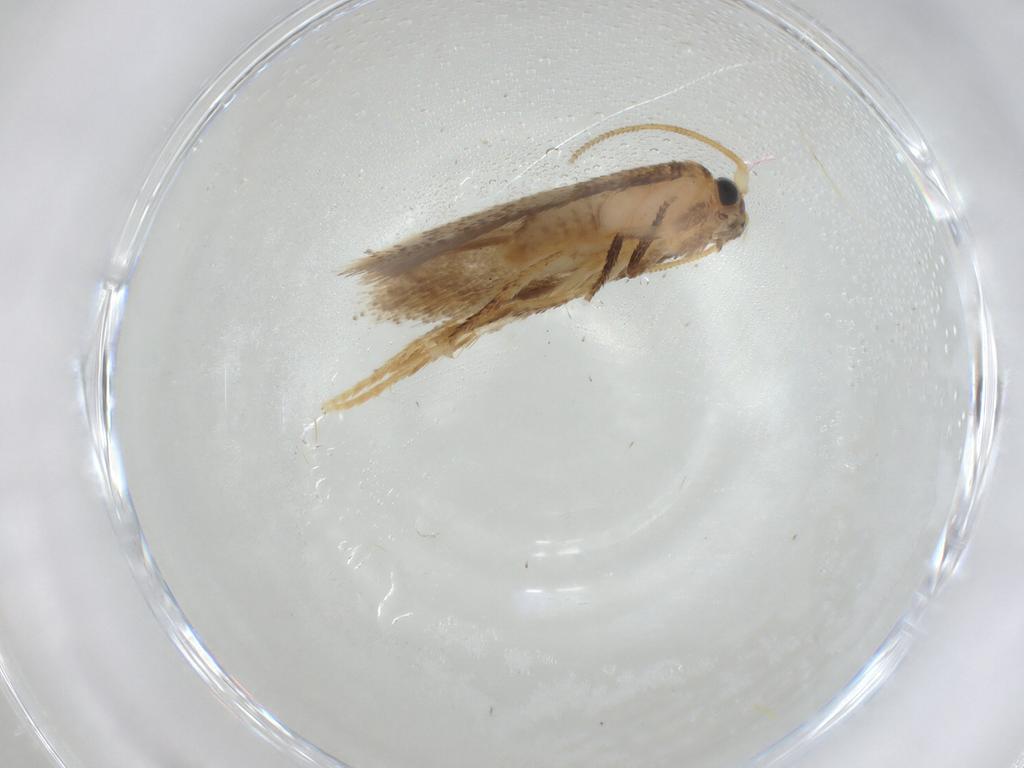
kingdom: Animalia
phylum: Arthropoda
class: Insecta
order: Lepidoptera
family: Nepticulidae
